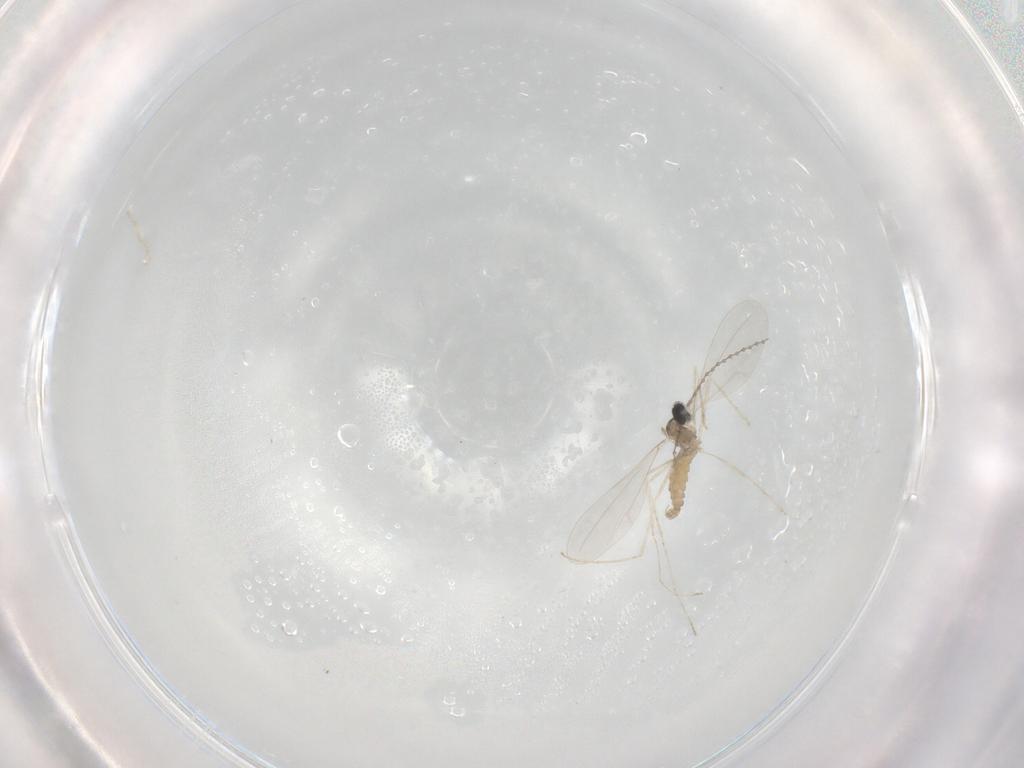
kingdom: Animalia
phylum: Arthropoda
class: Insecta
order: Diptera
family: Cecidomyiidae
